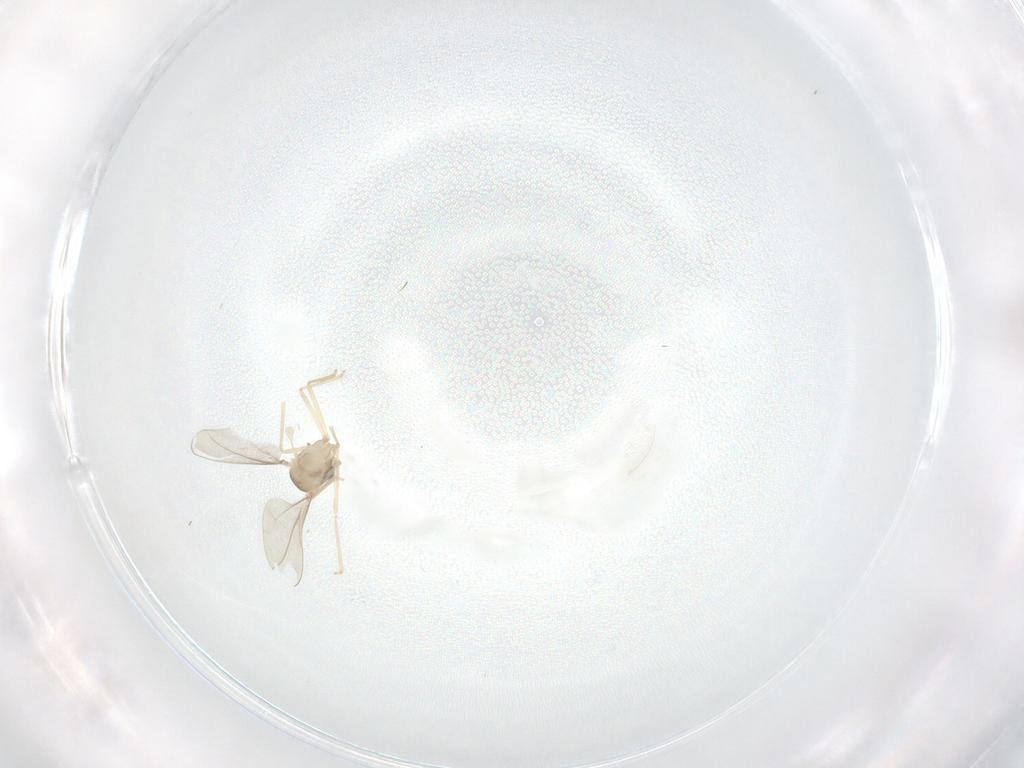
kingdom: Animalia
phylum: Arthropoda
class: Insecta
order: Diptera
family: Cecidomyiidae
